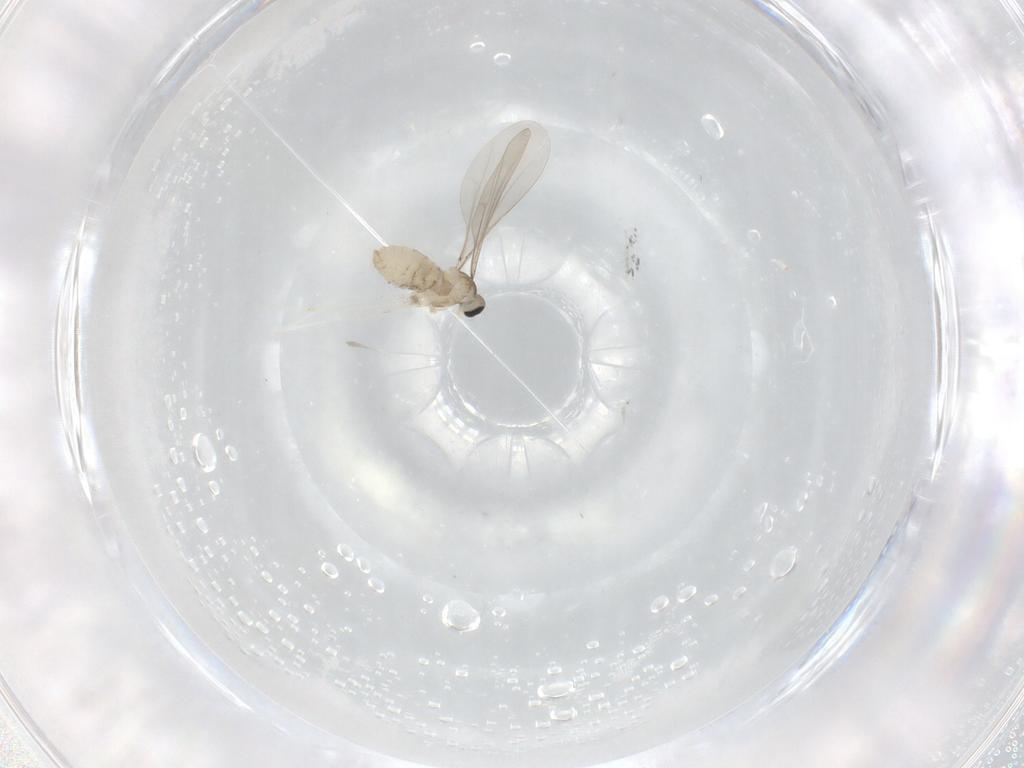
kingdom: Animalia
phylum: Arthropoda
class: Insecta
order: Diptera
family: Cecidomyiidae
